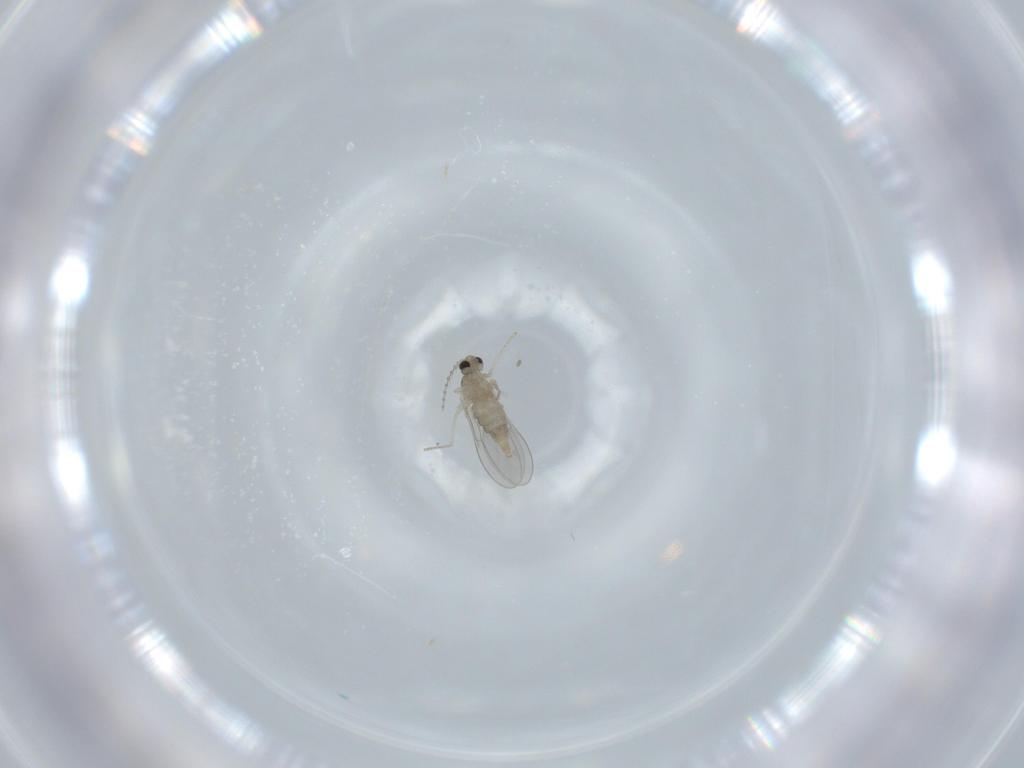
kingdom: Animalia
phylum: Arthropoda
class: Insecta
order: Diptera
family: Cecidomyiidae
